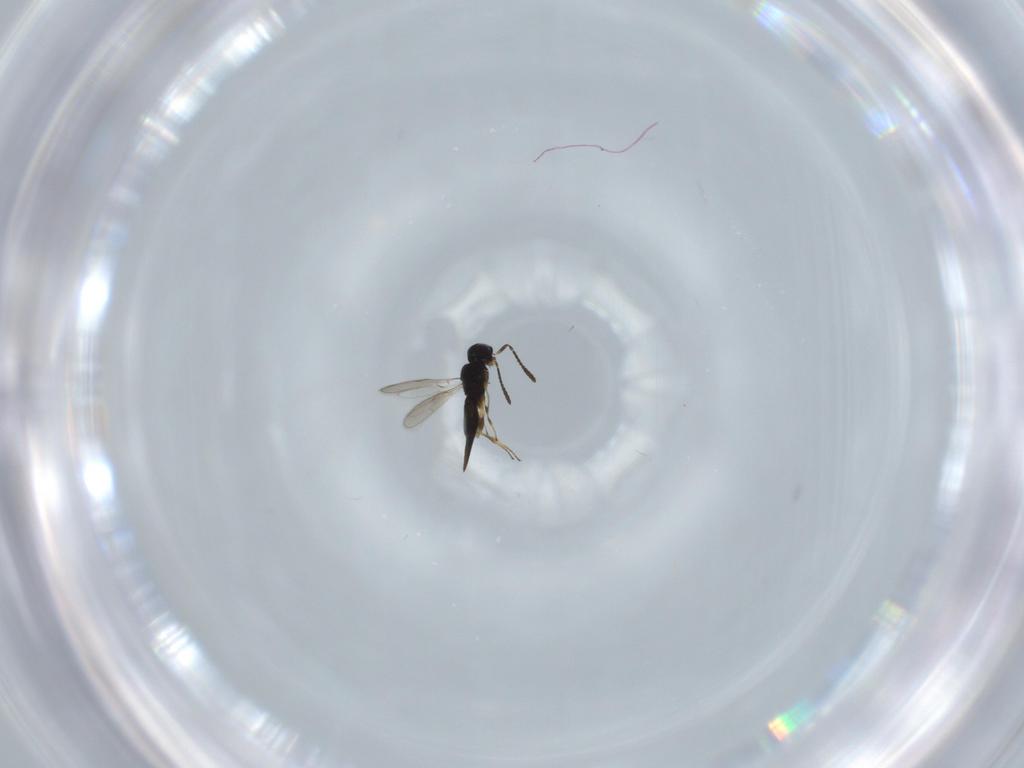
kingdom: Animalia
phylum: Arthropoda
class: Insecta
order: Hymenoptera
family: Scelionidae
